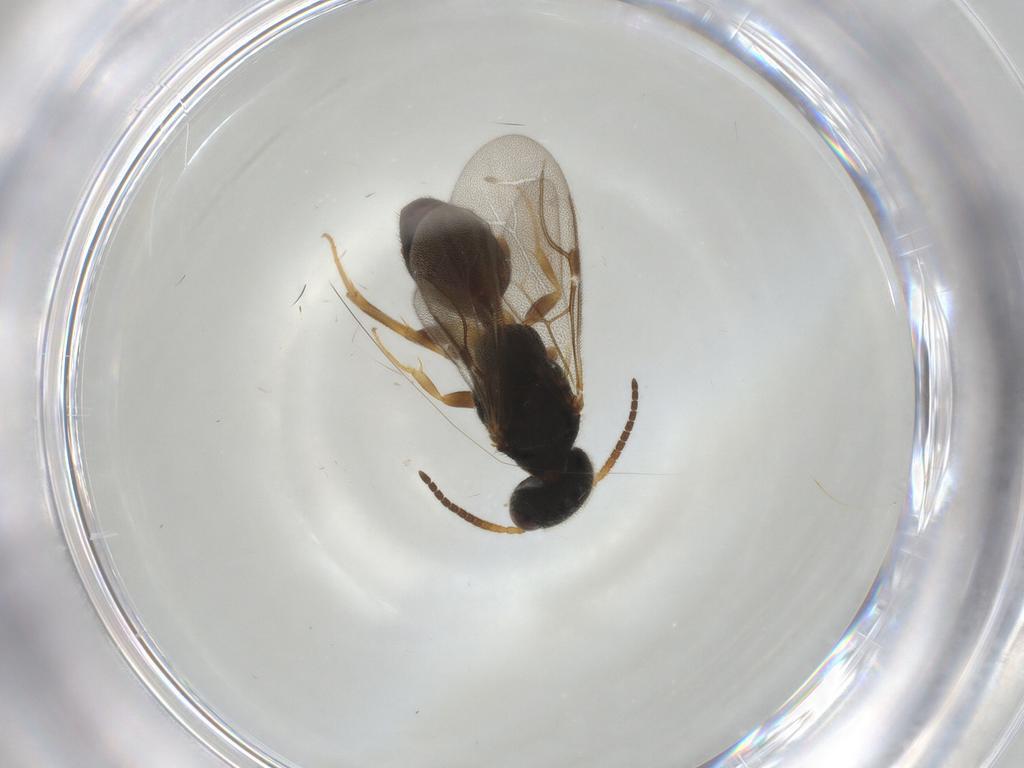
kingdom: Animalia
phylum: Arthropoda
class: Insecta
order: Hymenoptera
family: Bethylidae
